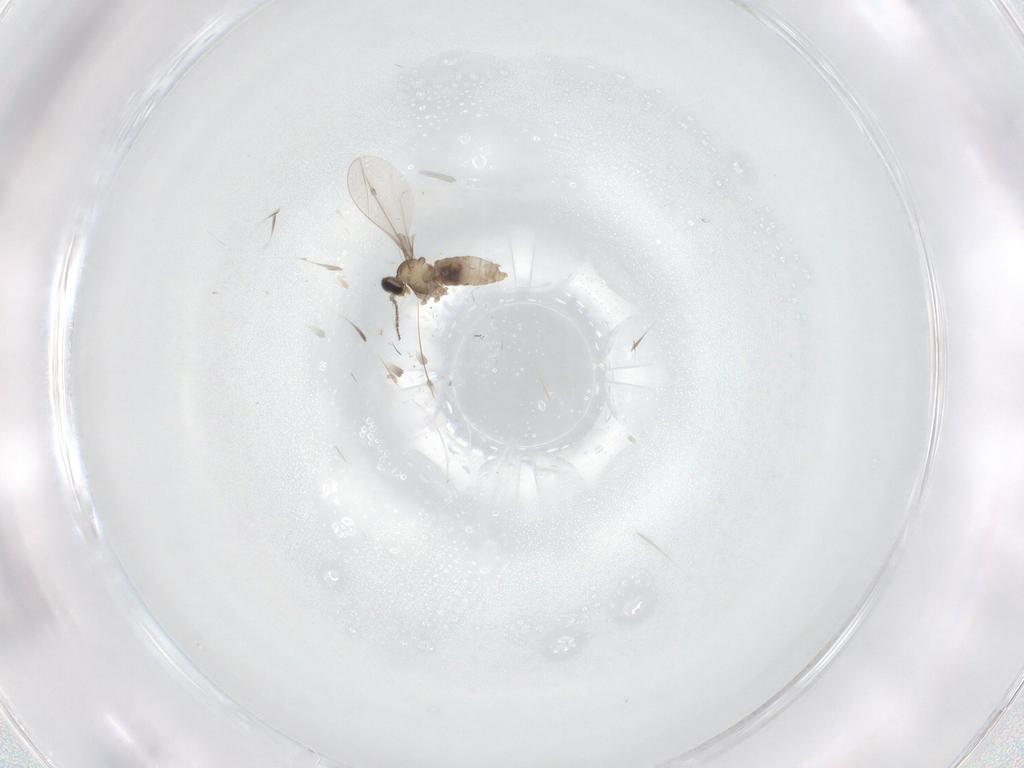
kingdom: Animalia
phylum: Arthropoda
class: Insecta
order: Diptera
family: Cecidomyiidae
